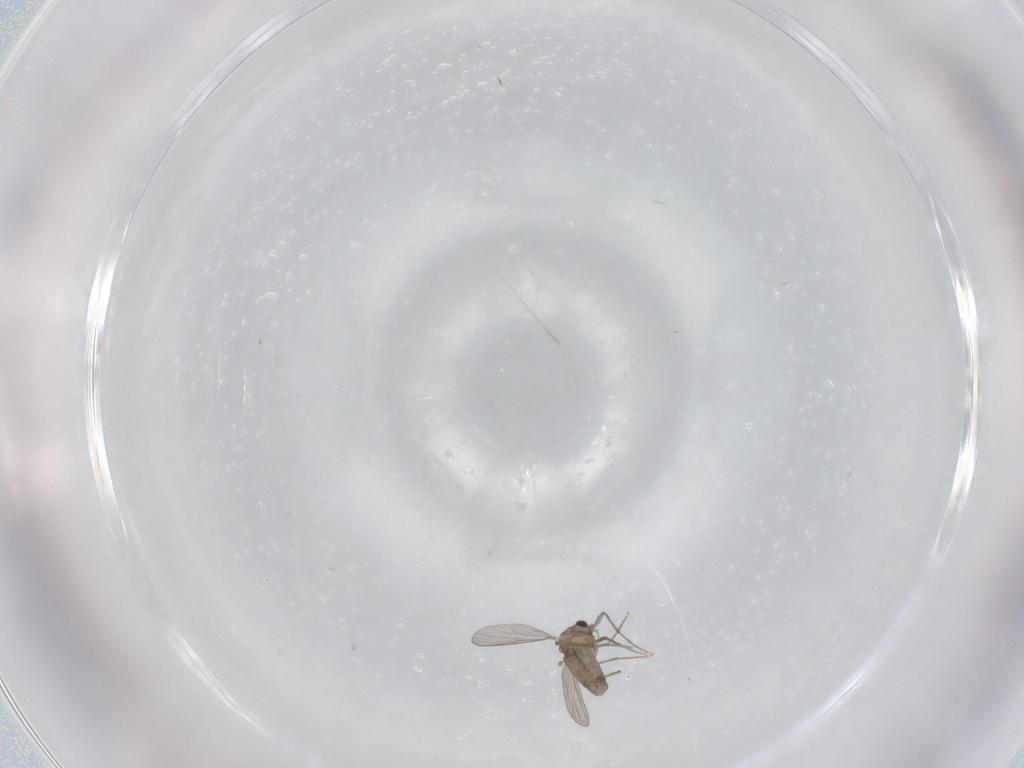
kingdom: Animalia
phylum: Arthropoda
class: Insecta
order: Diptera
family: Chironomidae
